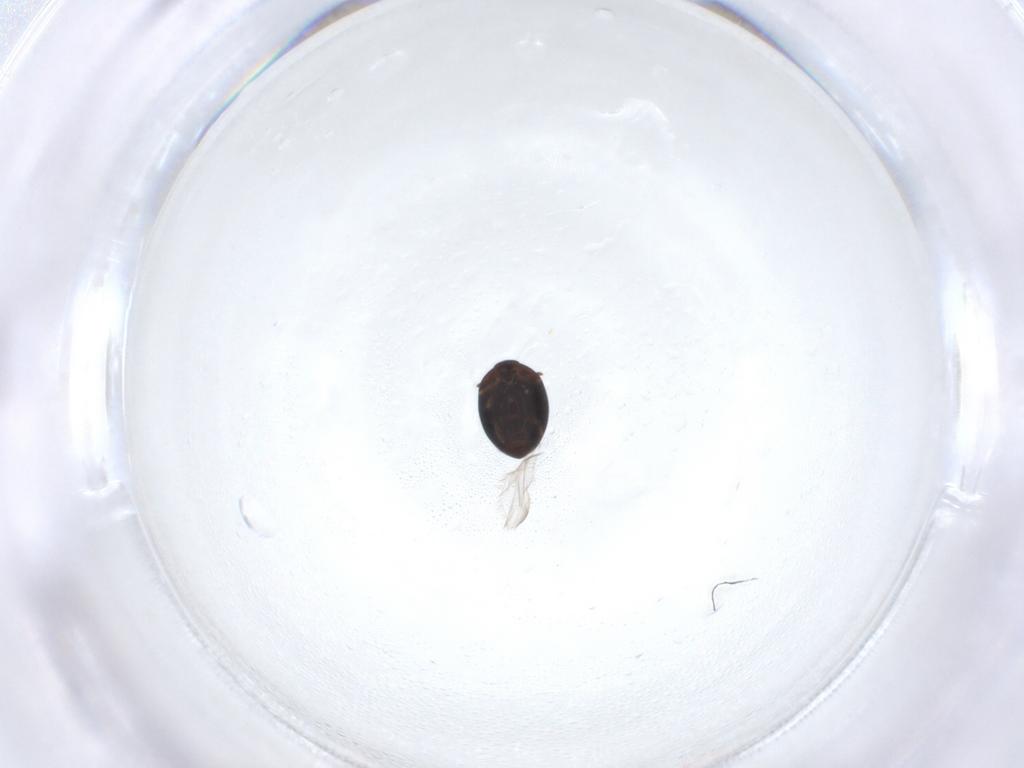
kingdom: Animalia
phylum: Arthropoda
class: Insecta
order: Coleoptera
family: Corylophidae
